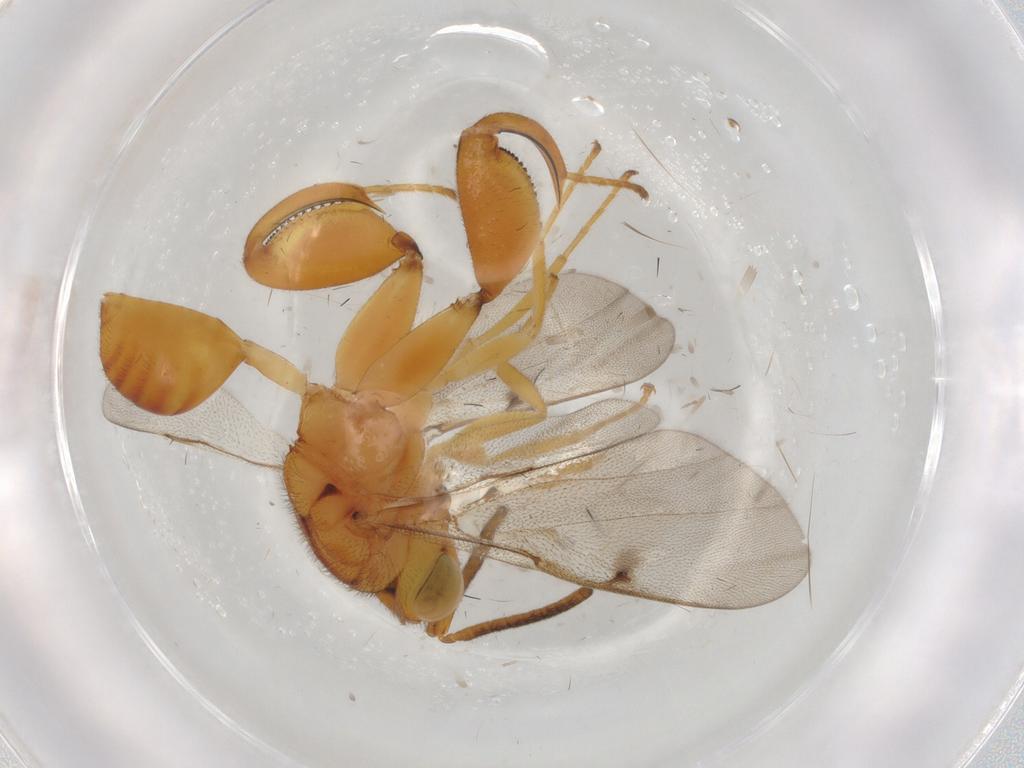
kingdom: Animalia
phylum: Arthropoda
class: Insecta
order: Hymenoptera
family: Chalcididae
